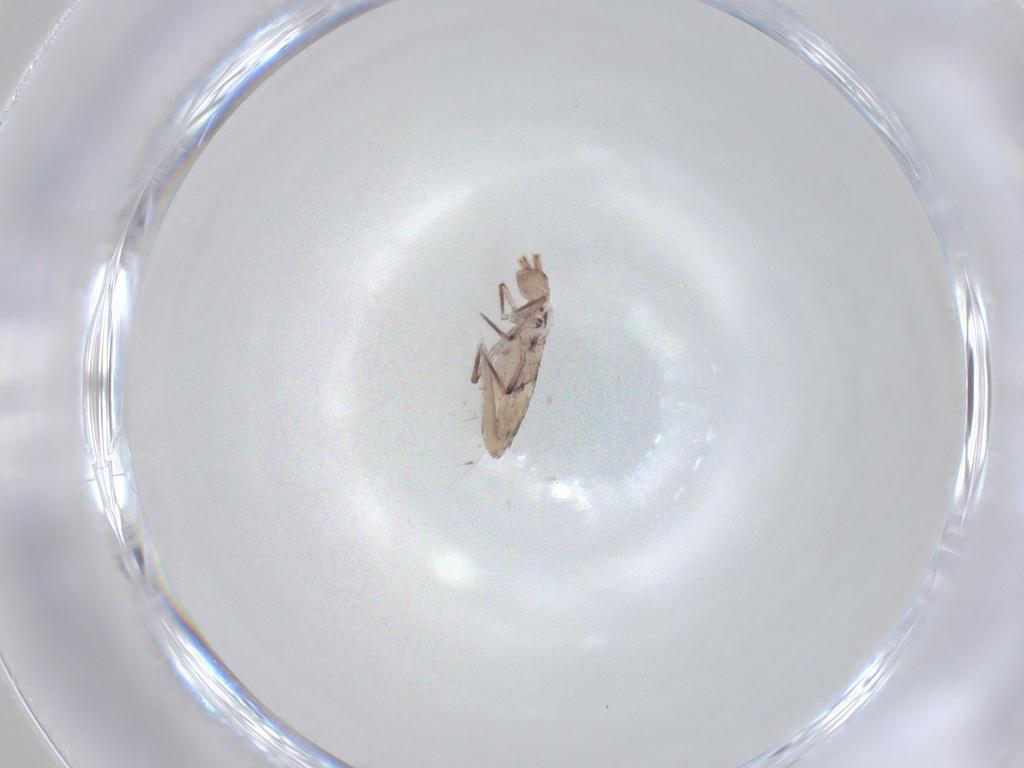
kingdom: Animalia
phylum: Arthropoda
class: Collembola
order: Entomobryomorpha
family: Entomobryidae
